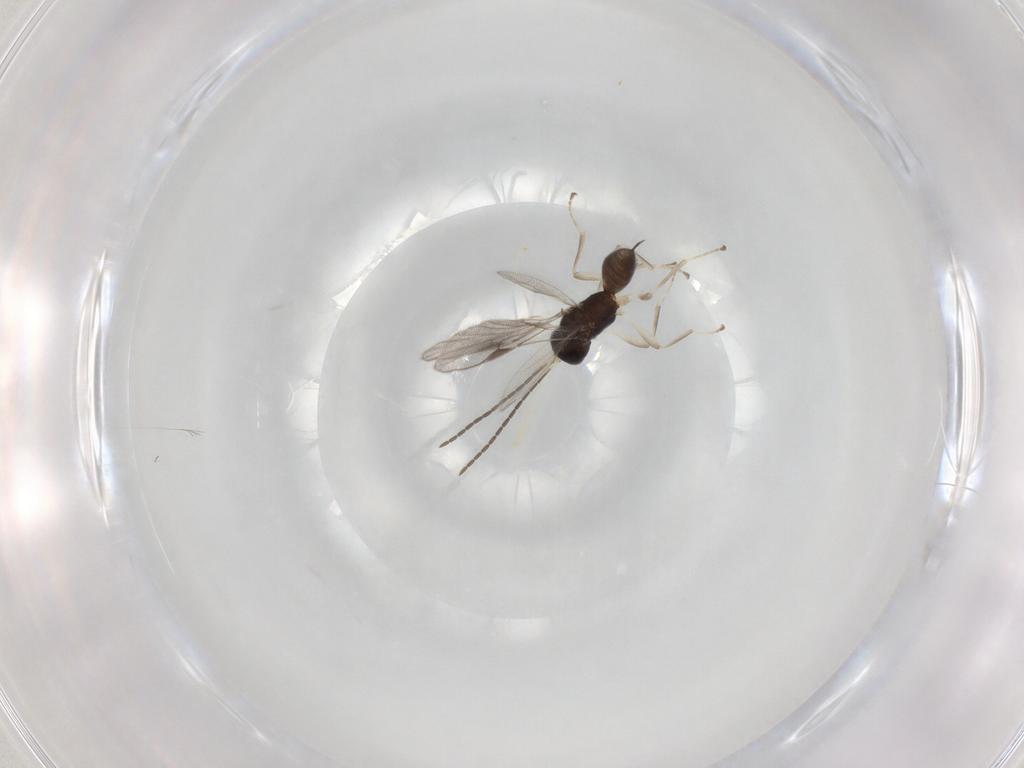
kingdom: Animalia
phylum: Arthropoda
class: Insecta
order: Hymenoptera
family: Braconidae
